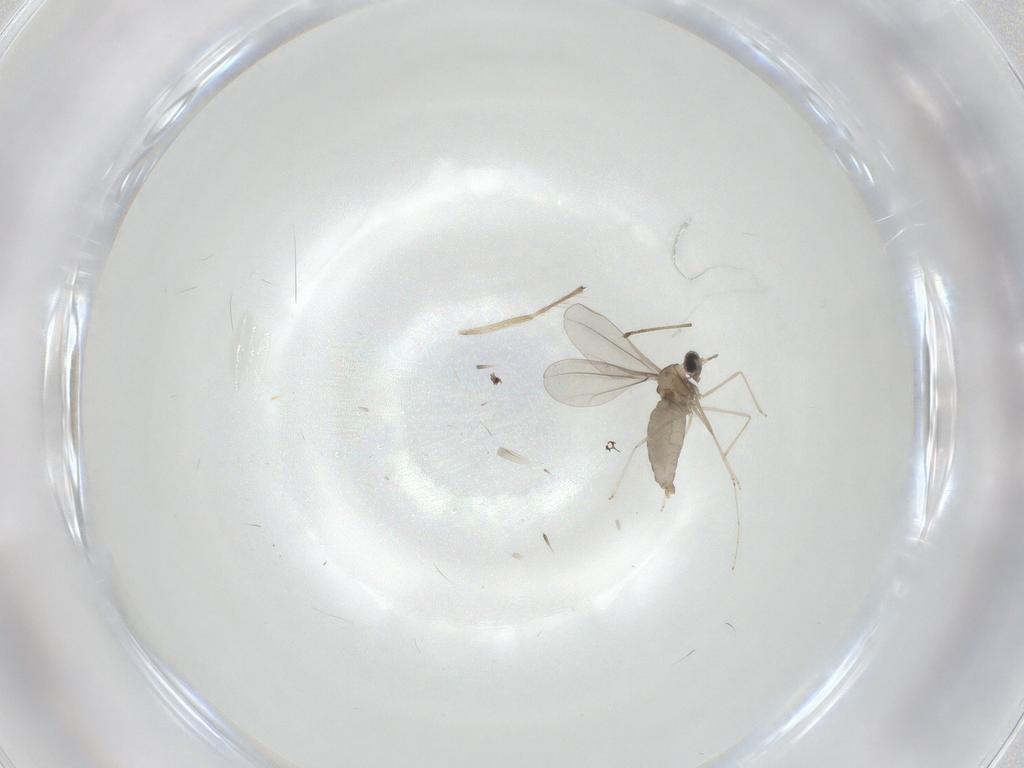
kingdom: Animalia
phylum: Arthropoda
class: Insecta
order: Diptera
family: Cecidomyiidae
